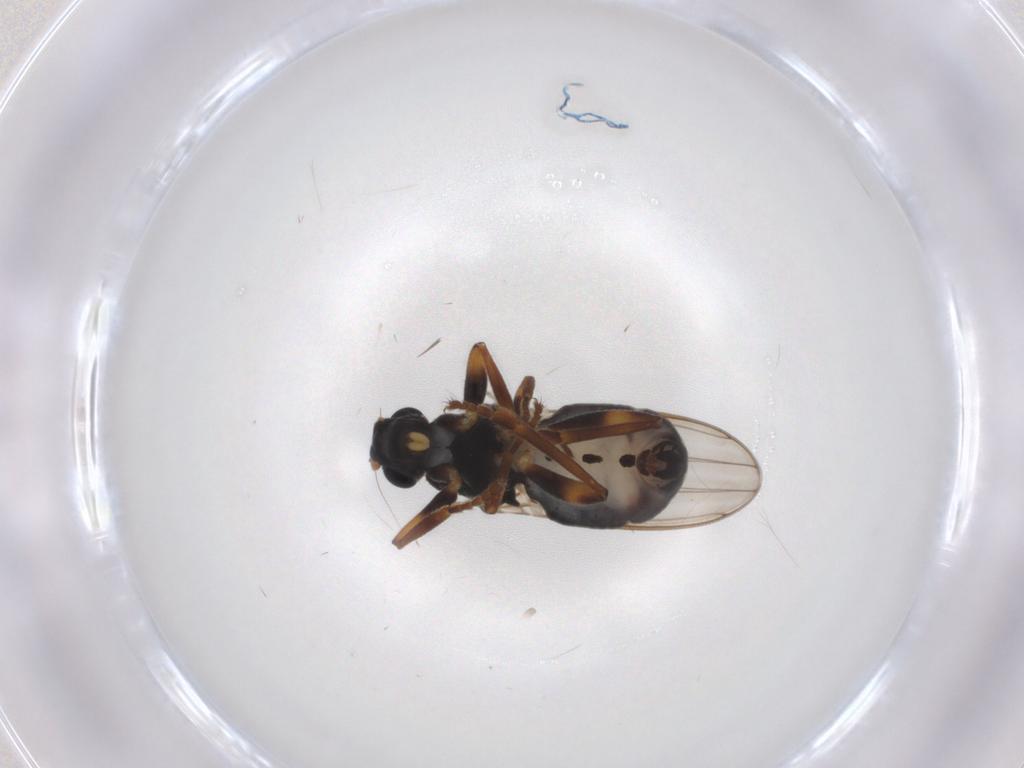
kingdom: Animalia
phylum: Arthropoda
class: Insecta
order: Diptera
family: Sphaeroceridae
